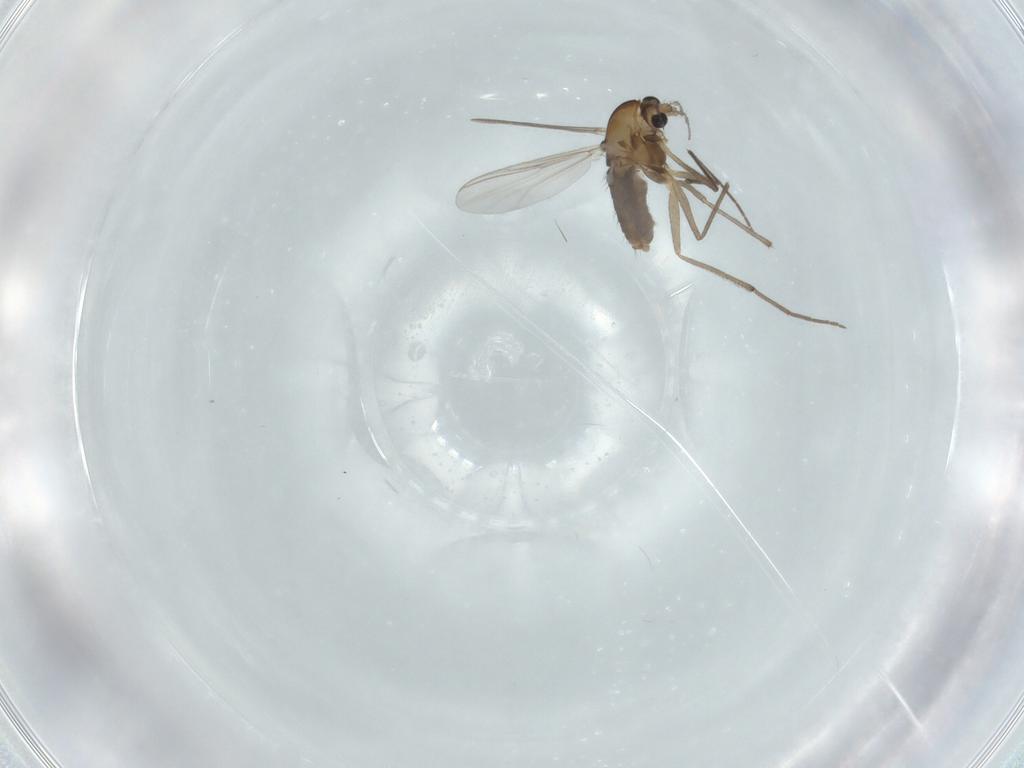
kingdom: Animalia
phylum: Arthropoda
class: Insecta
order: Diptera
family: Chironomidae
